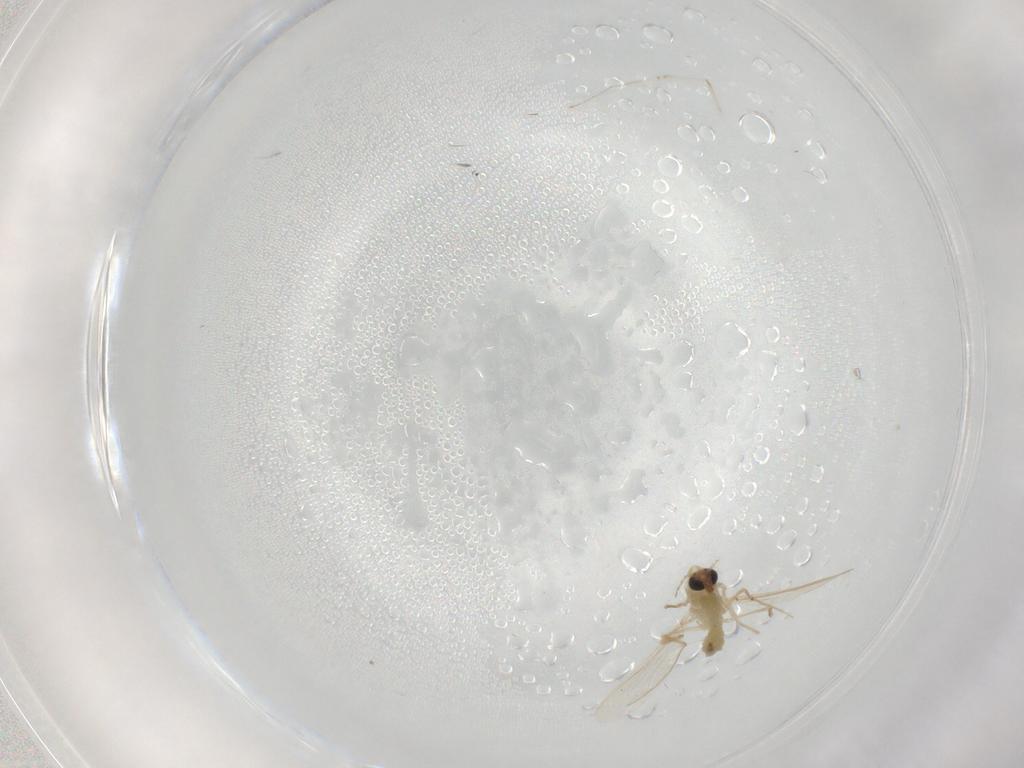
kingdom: Animalia
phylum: Arthropoda
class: Insecta
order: Diptera
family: Chironomidae
